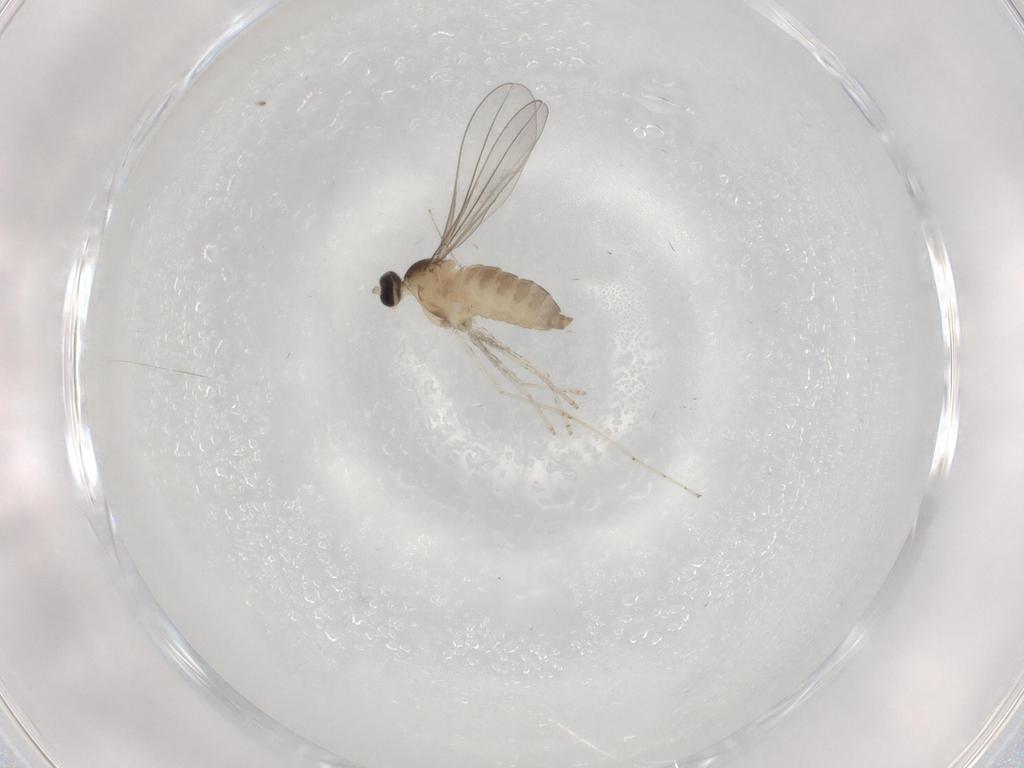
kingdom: Animalia
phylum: Arthropoda
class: Insecta
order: Diptera
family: Cecidomyiidae
